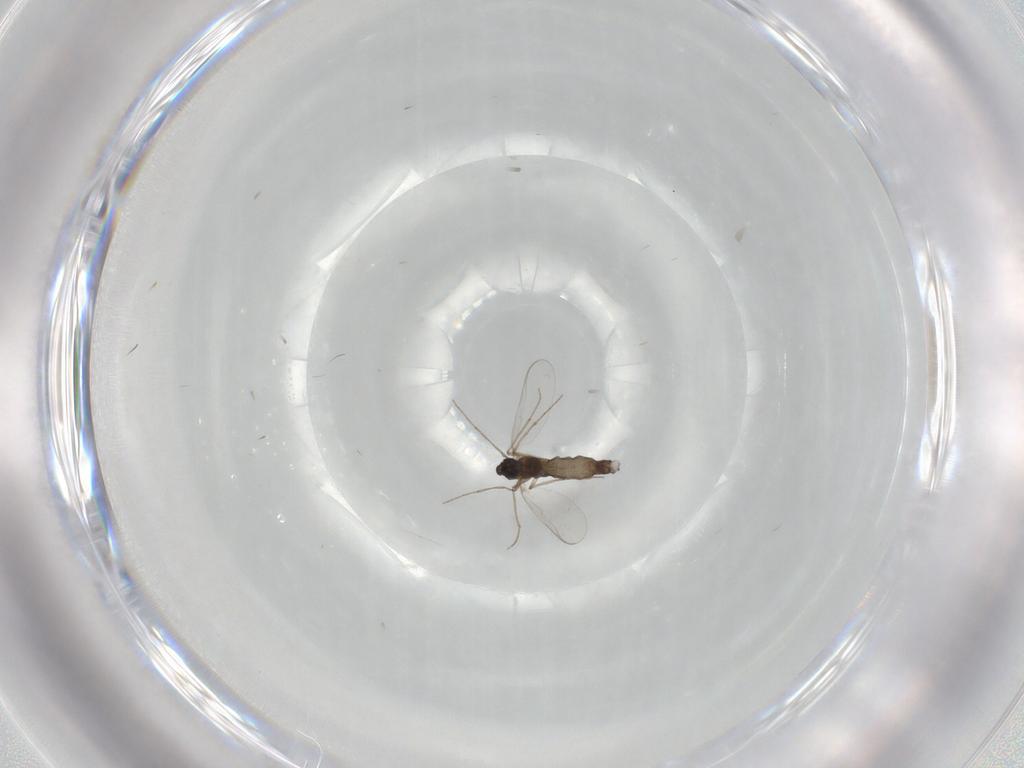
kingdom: Animalia
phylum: Arthropoda
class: Insecta
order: Diptera
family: Chironomidae
